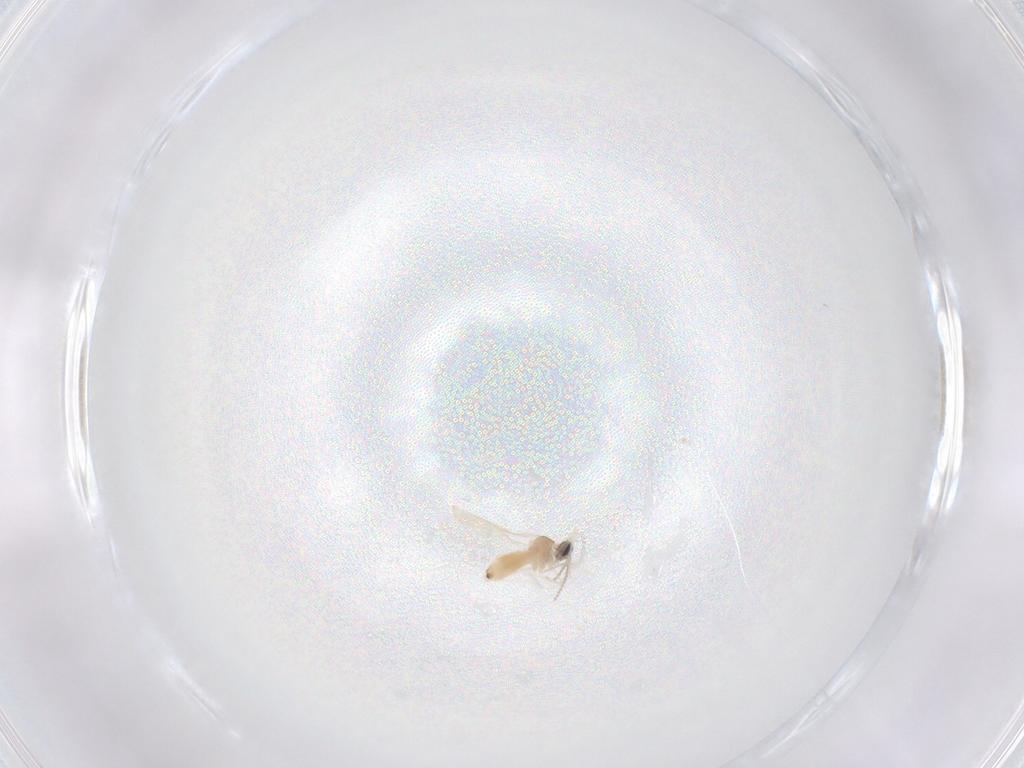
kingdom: Animalia
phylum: Arthropoda
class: Insecta
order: Diptera
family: Cecidomyiidae
